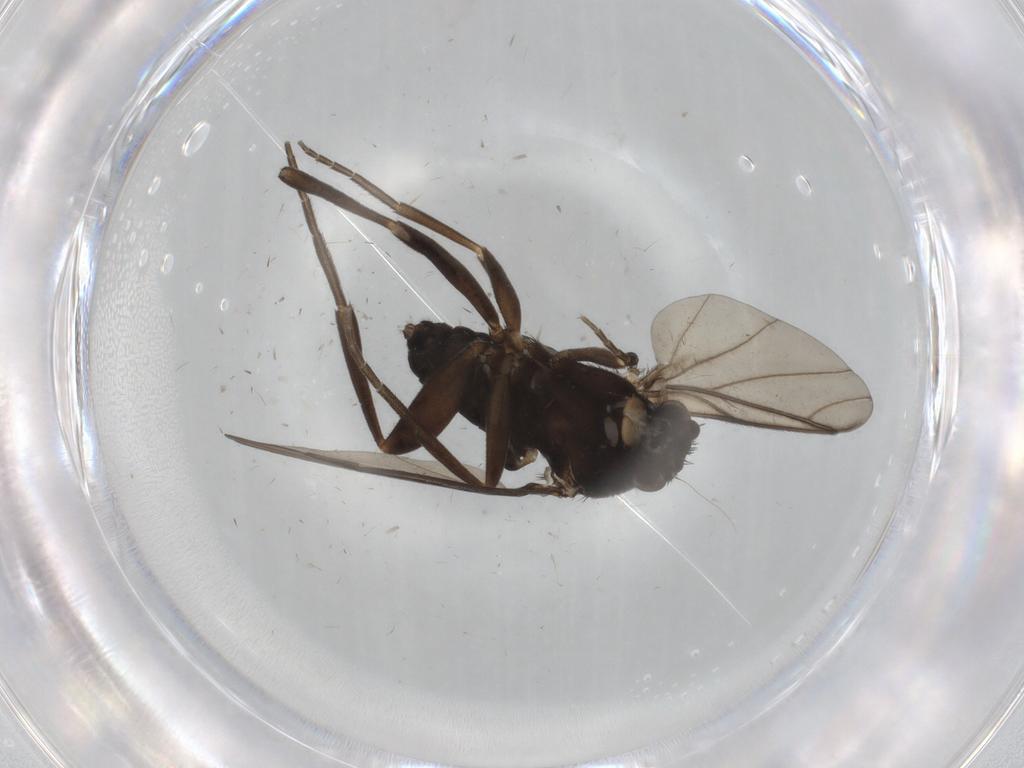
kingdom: Animalia
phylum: Arthropoda
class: Insecta
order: Diptera
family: Phoridae
